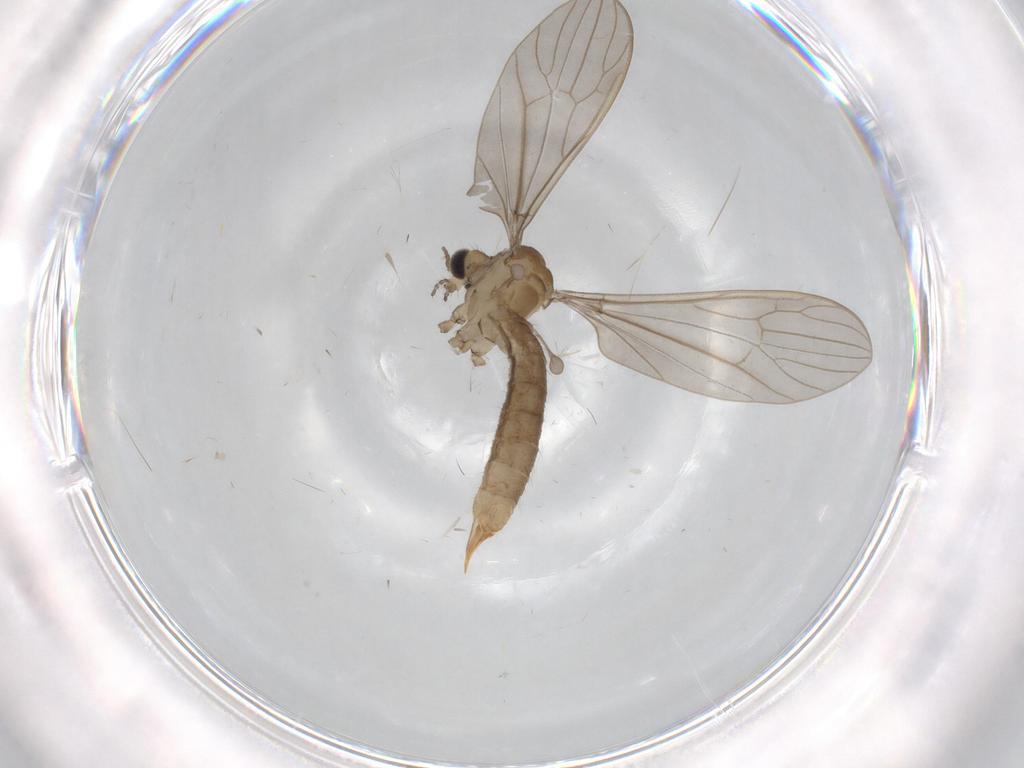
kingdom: Animalia
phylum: Arthropoda
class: Insecta
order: Diptera
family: Limoniidae
